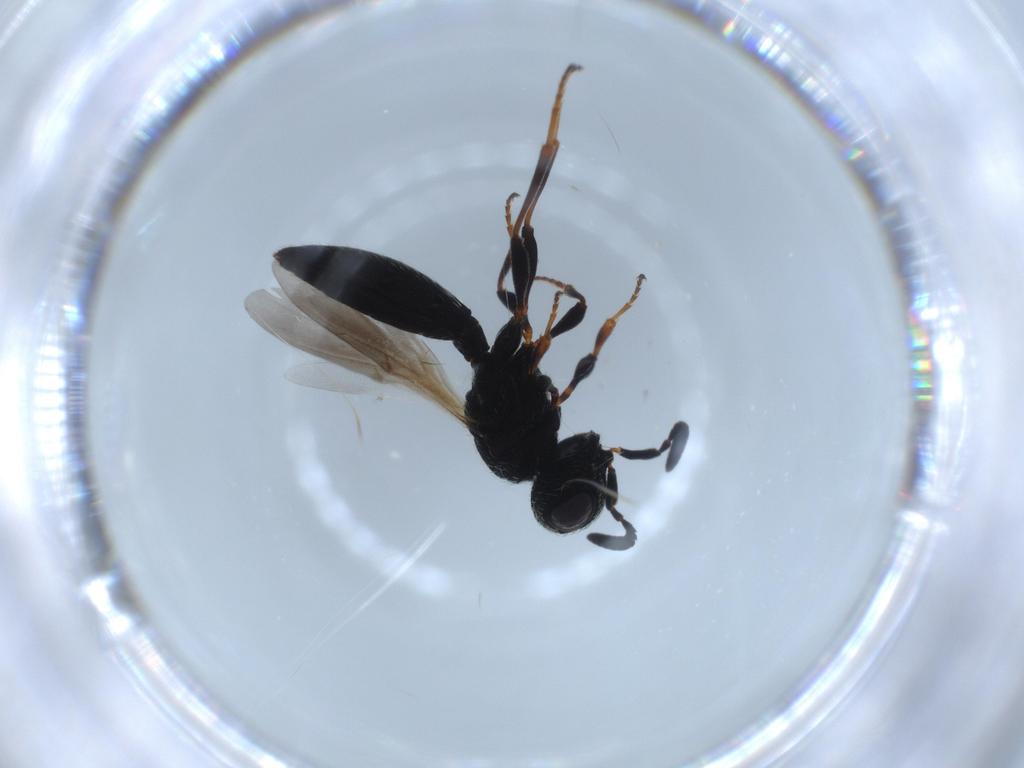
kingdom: Animalia
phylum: Arthropoda
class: Insecta
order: Hymenoptera
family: Scelionidae
